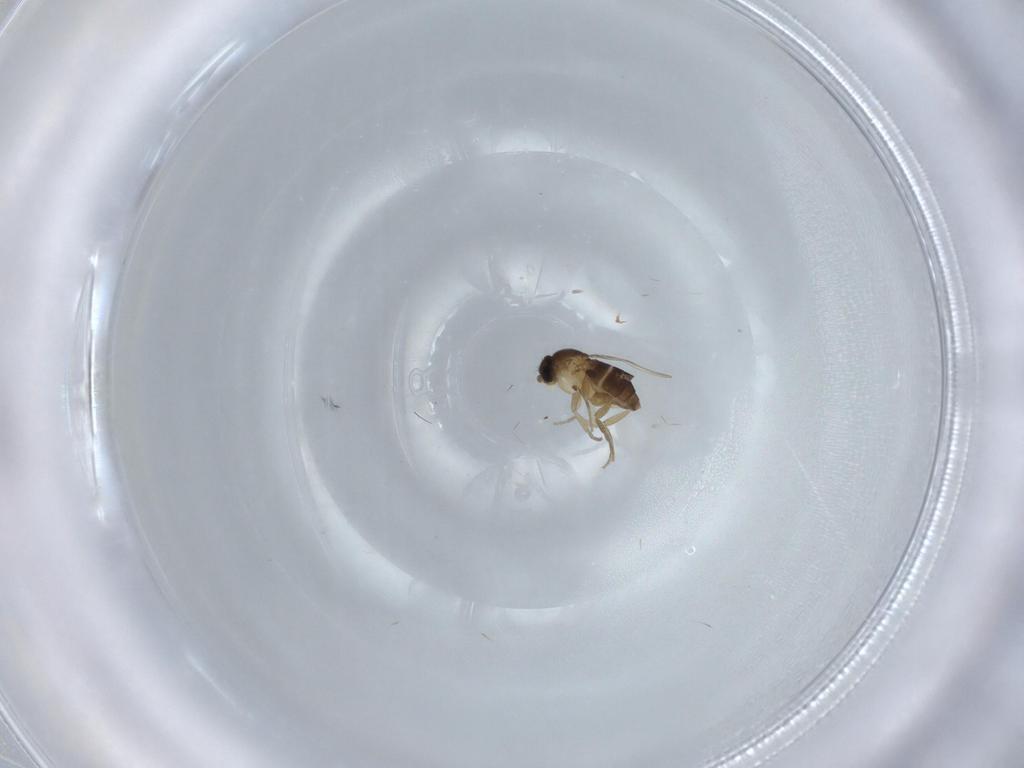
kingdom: Animalia
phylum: Arthropoda
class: Insecta
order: Diptera
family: Phoridae
